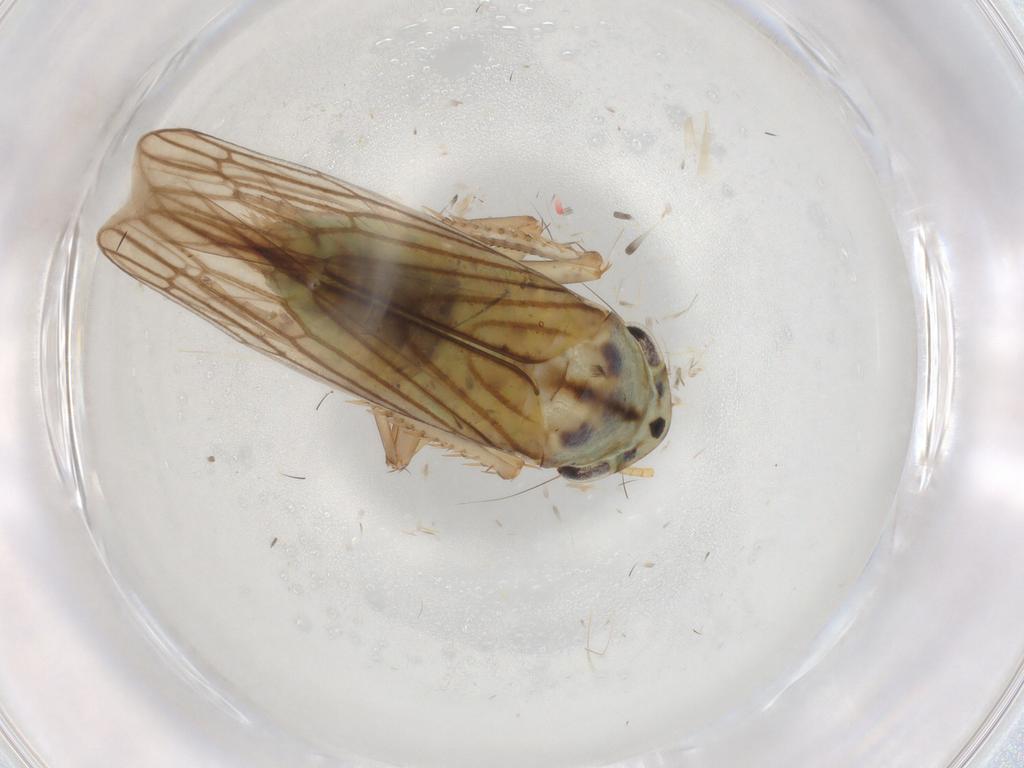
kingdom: Animalia
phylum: Arthropoda
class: Insecta
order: Hemiptera
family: Cicadellidae
